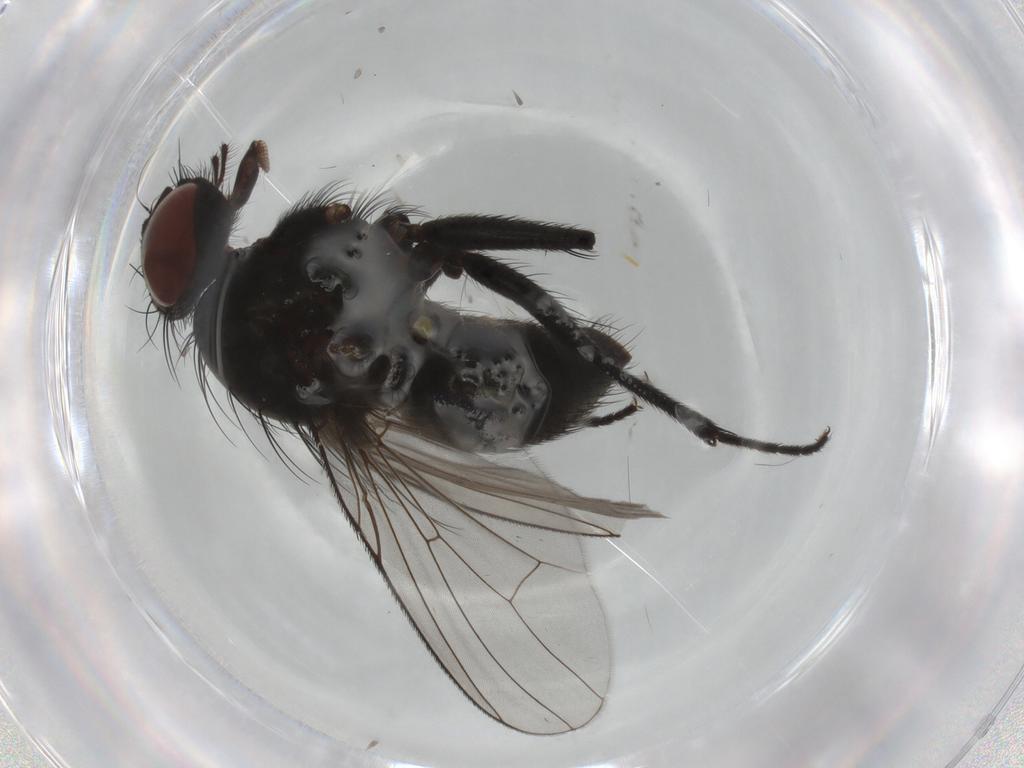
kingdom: Animalia
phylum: Arthropoda
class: Insecta
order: Diptera
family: Muscidae
